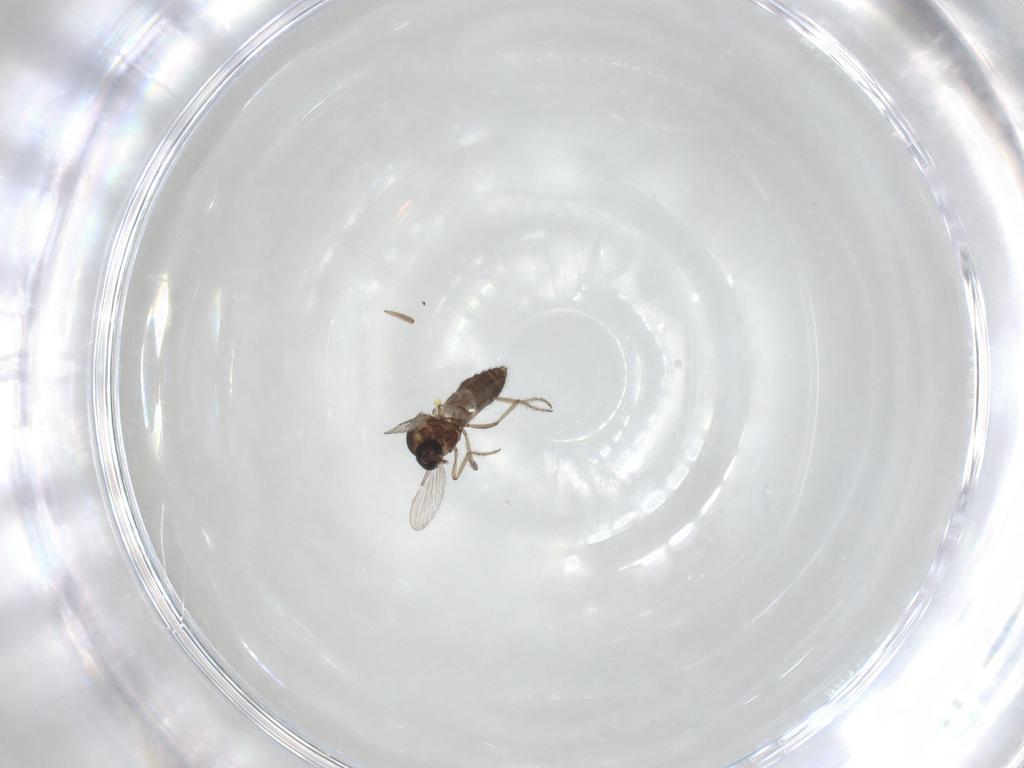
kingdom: Animalia
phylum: Arthropoda
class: Insecta
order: Diptera
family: Ceratopogonidae
